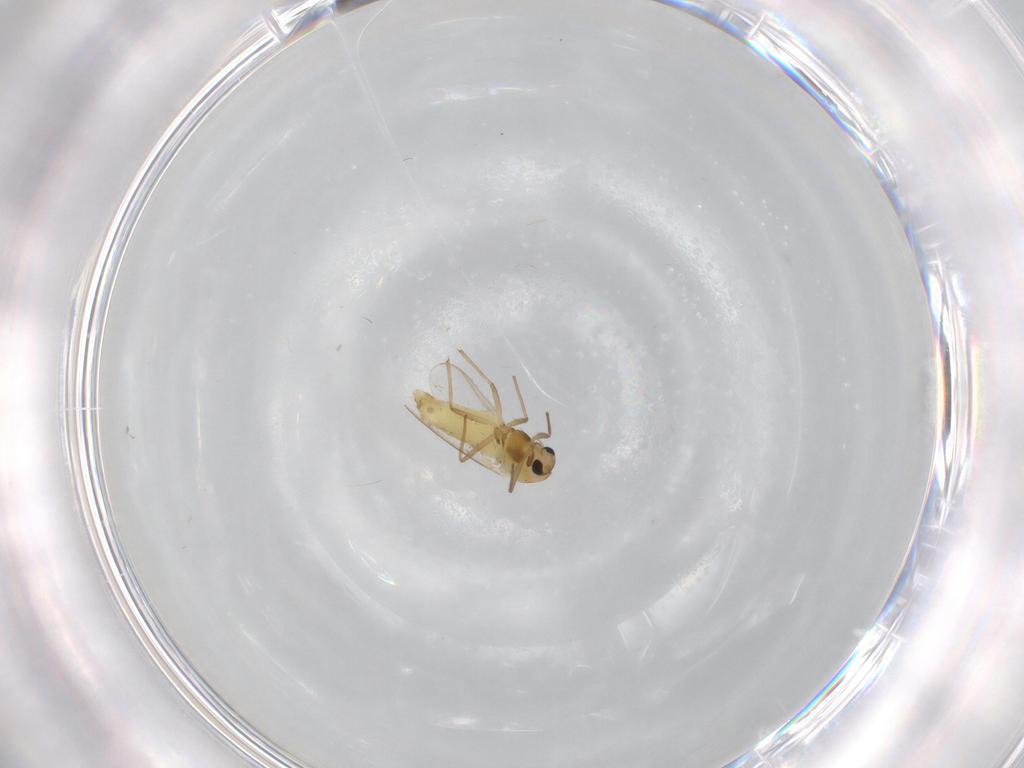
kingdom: Animalia
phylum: Arthropoda
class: Insecta
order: Diptera
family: Chironomidae
